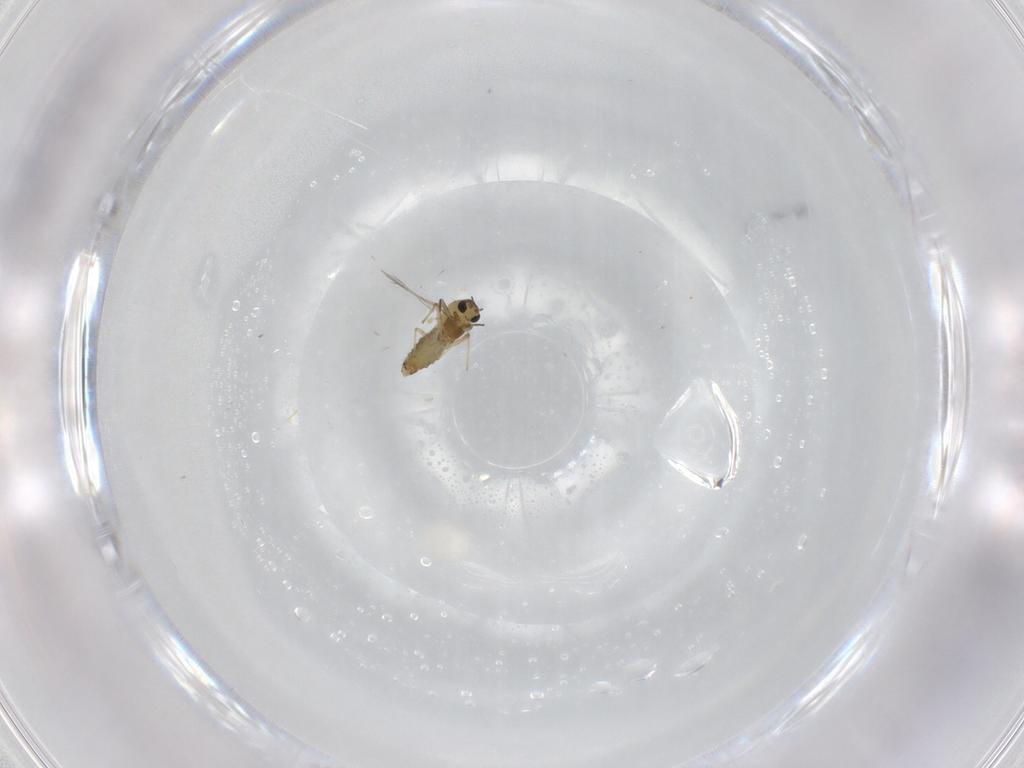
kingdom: Animalia
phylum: Arthropoda
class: Insecta
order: Diptera
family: Chironomidae
